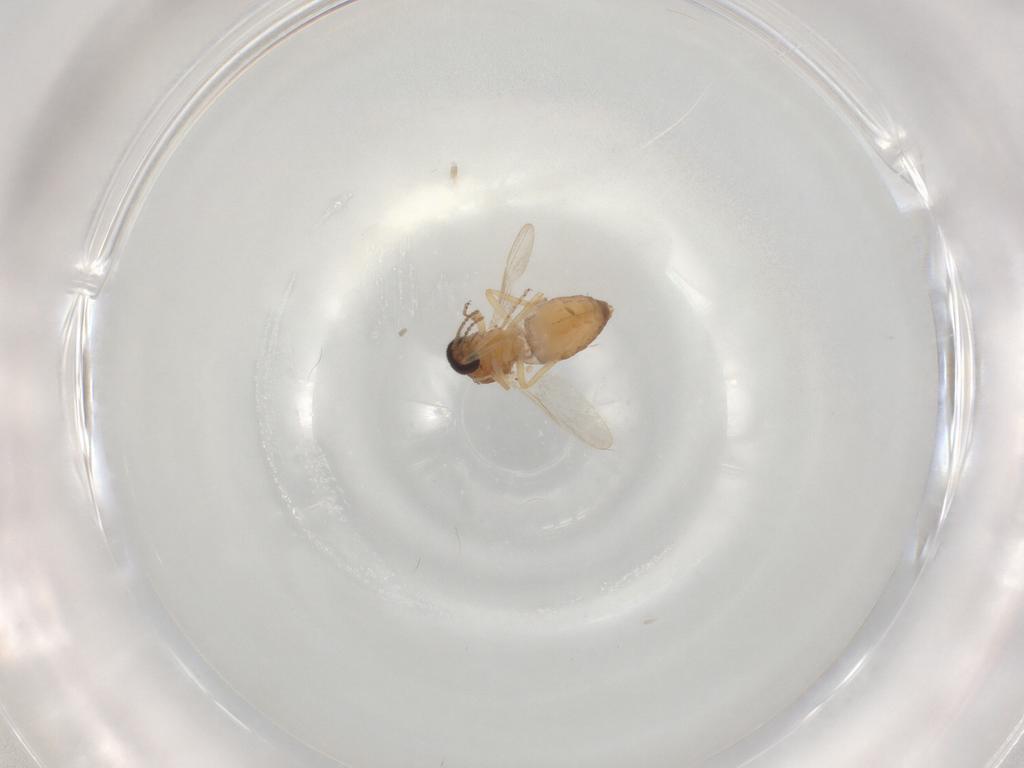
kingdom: Animalia
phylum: Arthropoda
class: Insecta
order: Diptera
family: Ceratopogonidae
